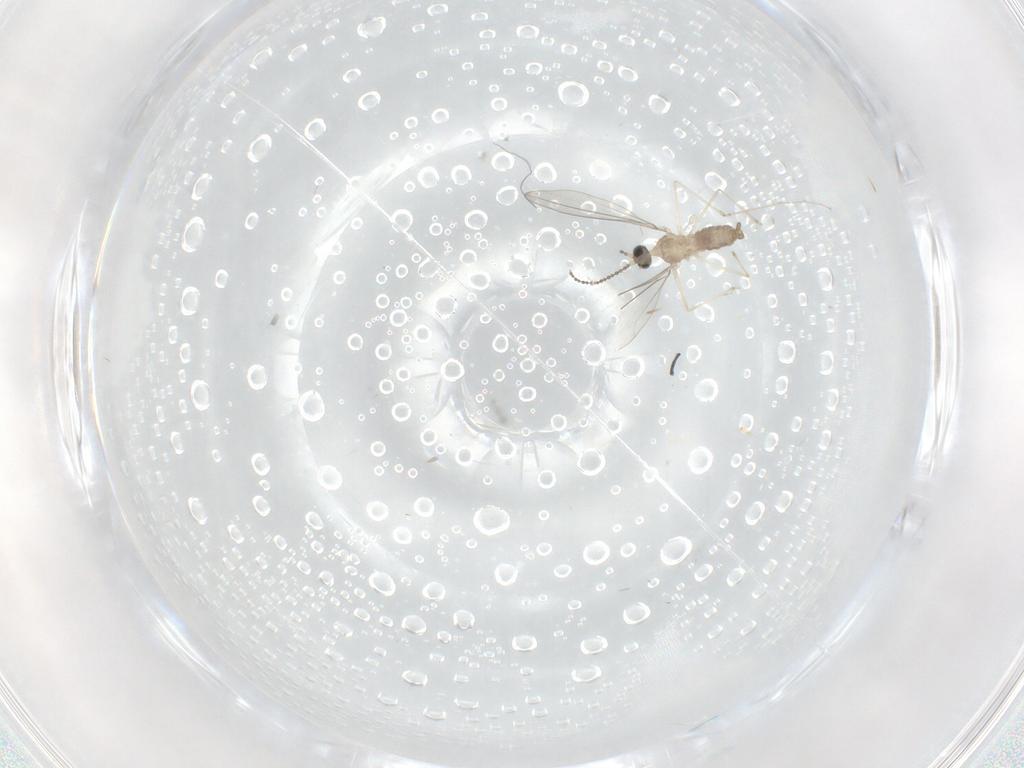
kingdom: Animalia
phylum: Arthropoda
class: Insecta
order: Diptera
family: Cecidomyiidae
